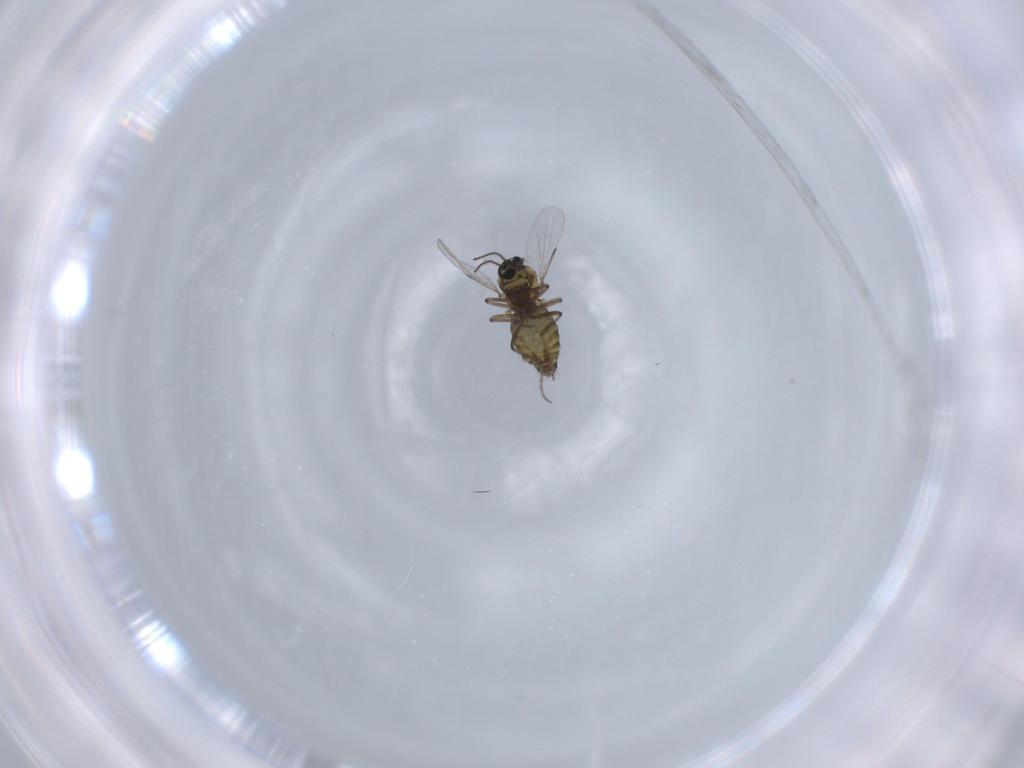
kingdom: Animalia
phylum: Arthropoda
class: Insecta
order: Diptera
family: Ceratopogonidae
